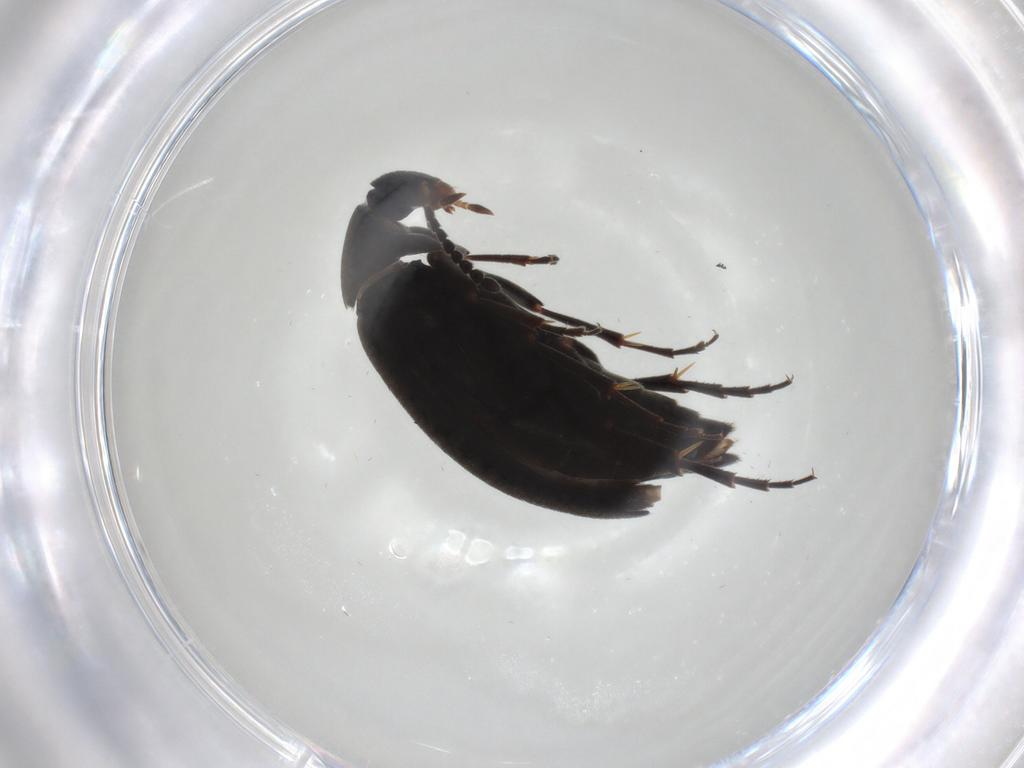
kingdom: Animalia
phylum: Arthropoda
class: Insecta
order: Coleoptera
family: Scraptiidae
